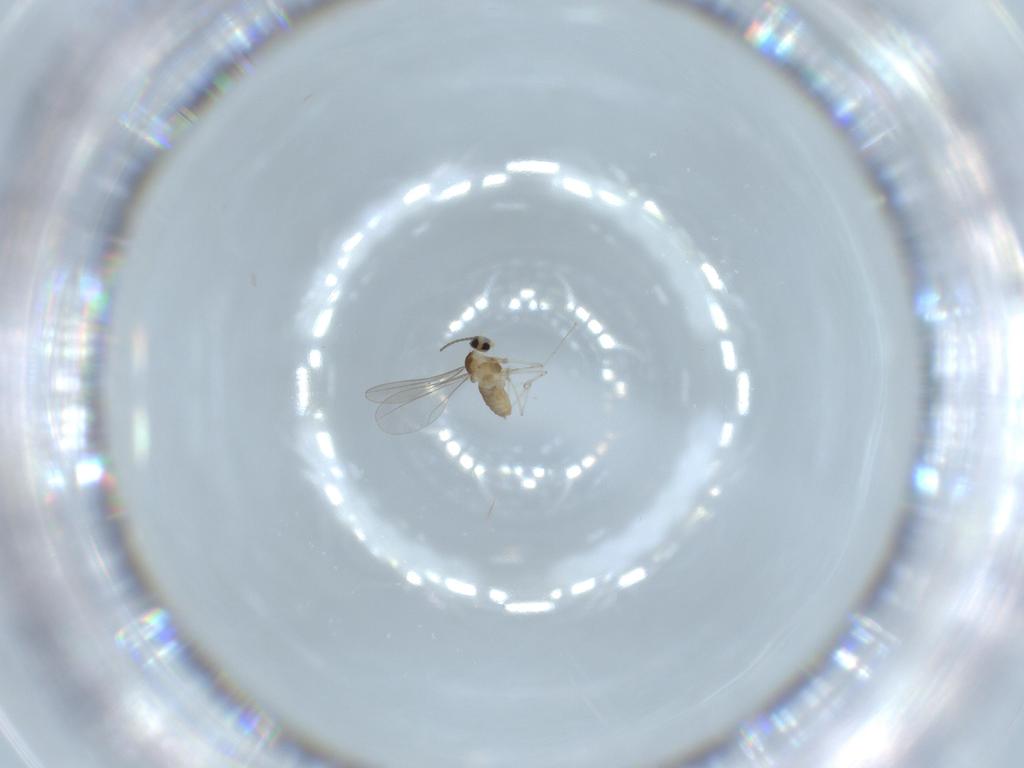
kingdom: Animalia
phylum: Arthropoda
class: Insecta
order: Diptera
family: Cecidomyiidae
